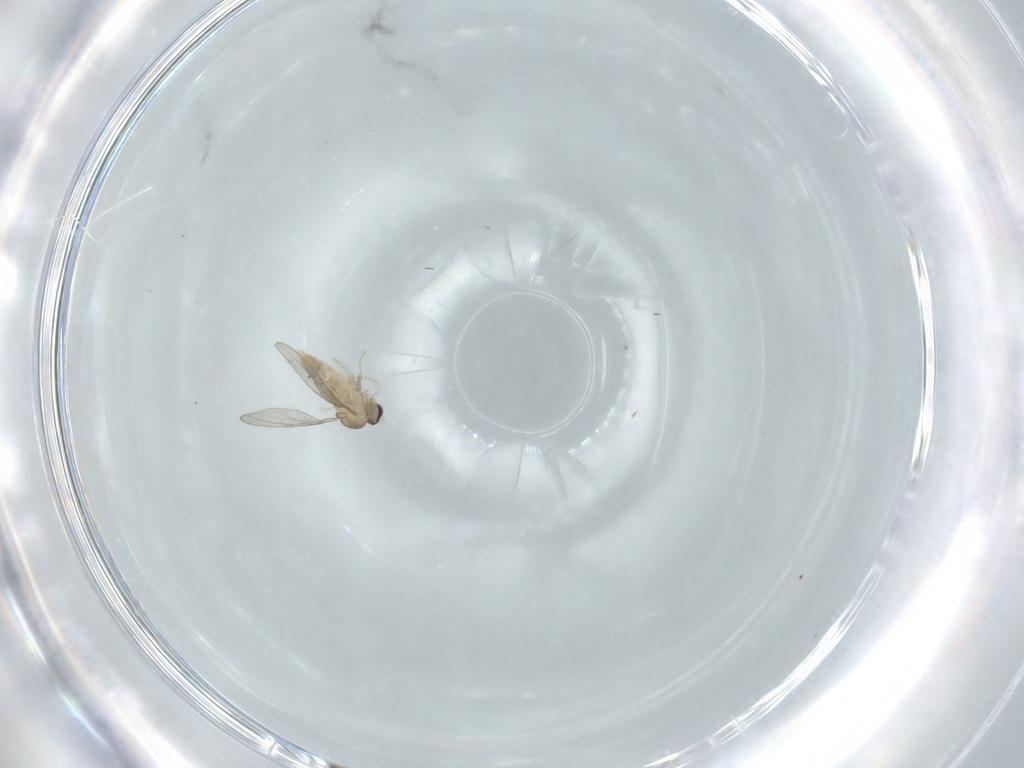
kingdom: Animalia
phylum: Arthropoda
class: Insecta
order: Diptera
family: Cecidomyiidae
